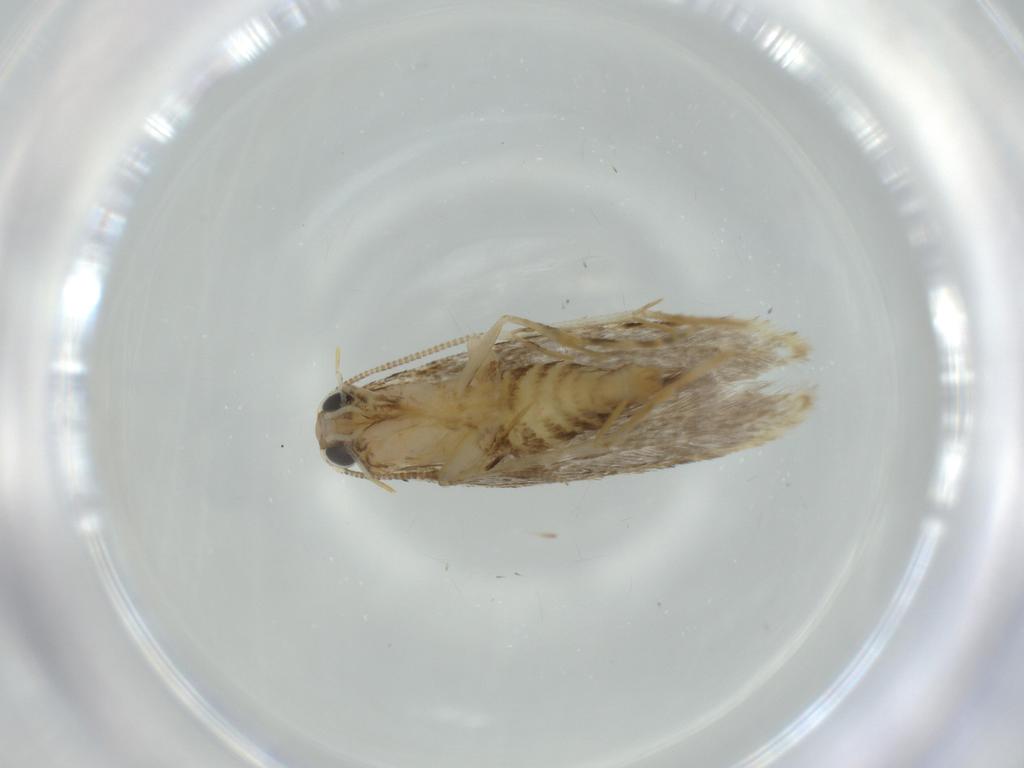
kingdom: Animalia
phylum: Arthropoda
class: Insecta
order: Lepidoptera
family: Tineidae
